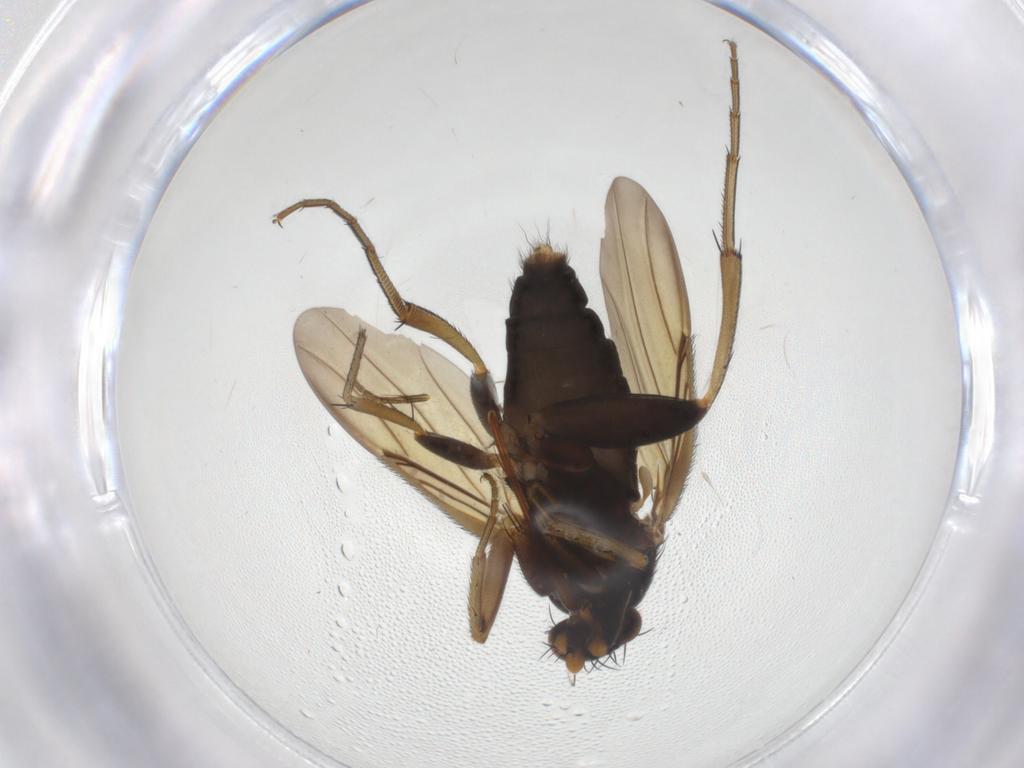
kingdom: Animalia
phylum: Arthropoda
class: Insecta
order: Diptera
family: Phoridae
